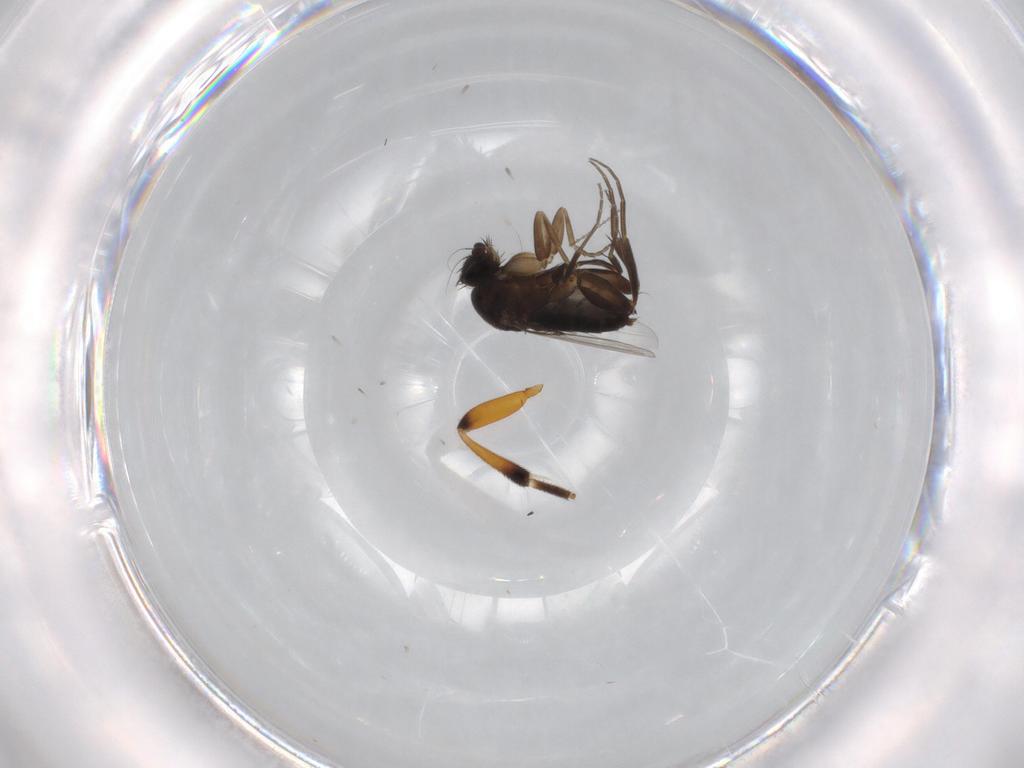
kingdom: Animalia
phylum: Arthropoda
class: Insecta
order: Diptera
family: Phoridae
